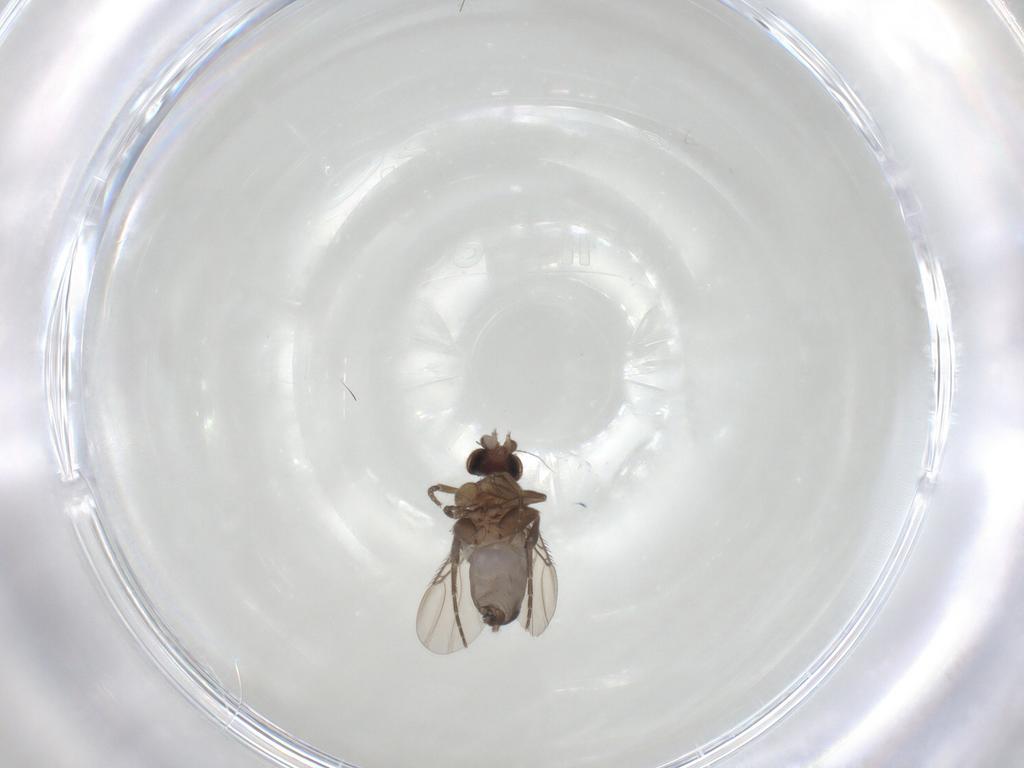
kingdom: Animalia
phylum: Arthropoda
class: Insecta
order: Diptera
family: Phoridae
